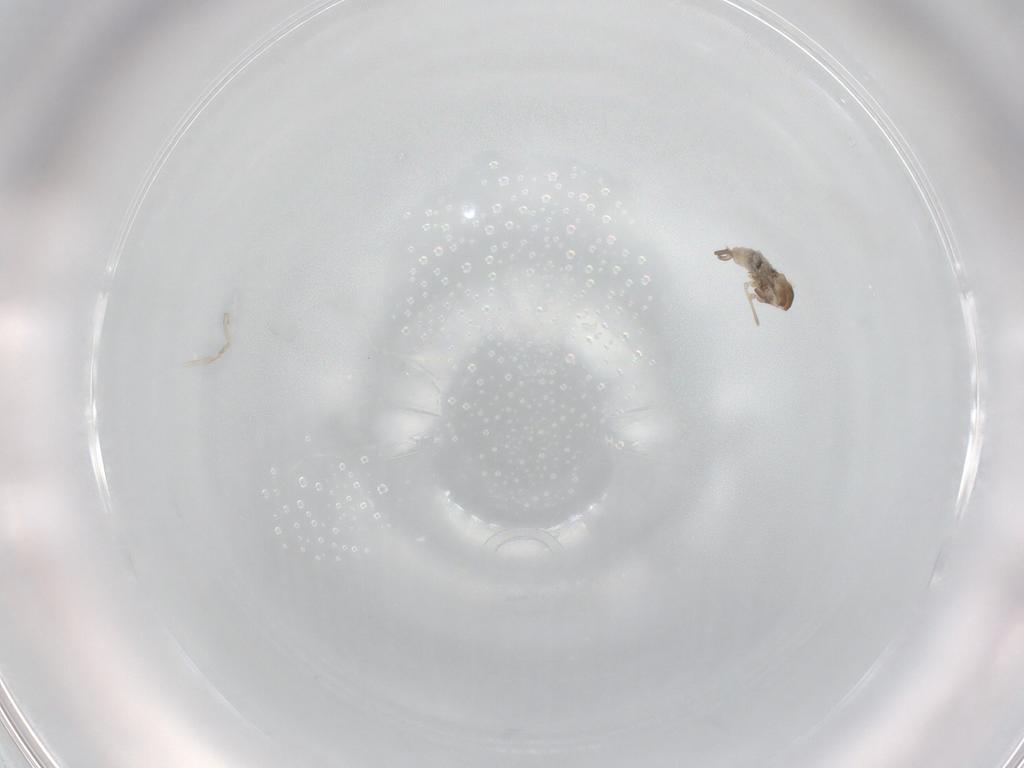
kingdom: Animalia
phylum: Arthropoda
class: Insecta
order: Diptera
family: Cecidomyiidae
